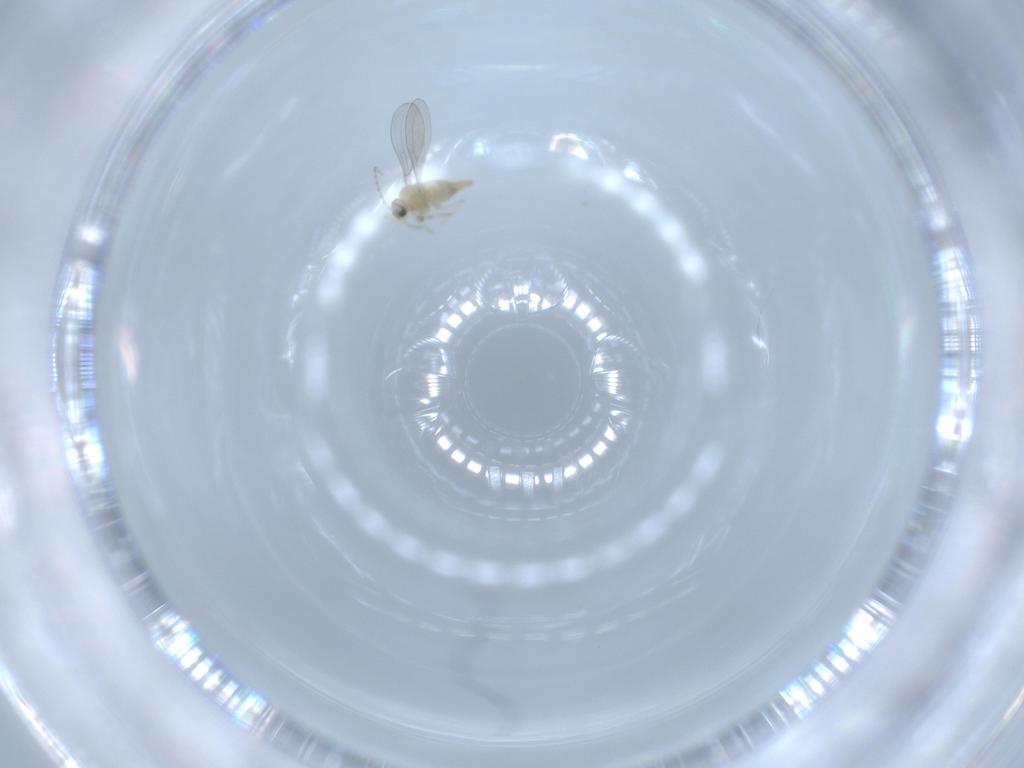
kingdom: Animalia
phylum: Arthropoda
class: Insecta
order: Diptera
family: Cecidomyiidae
